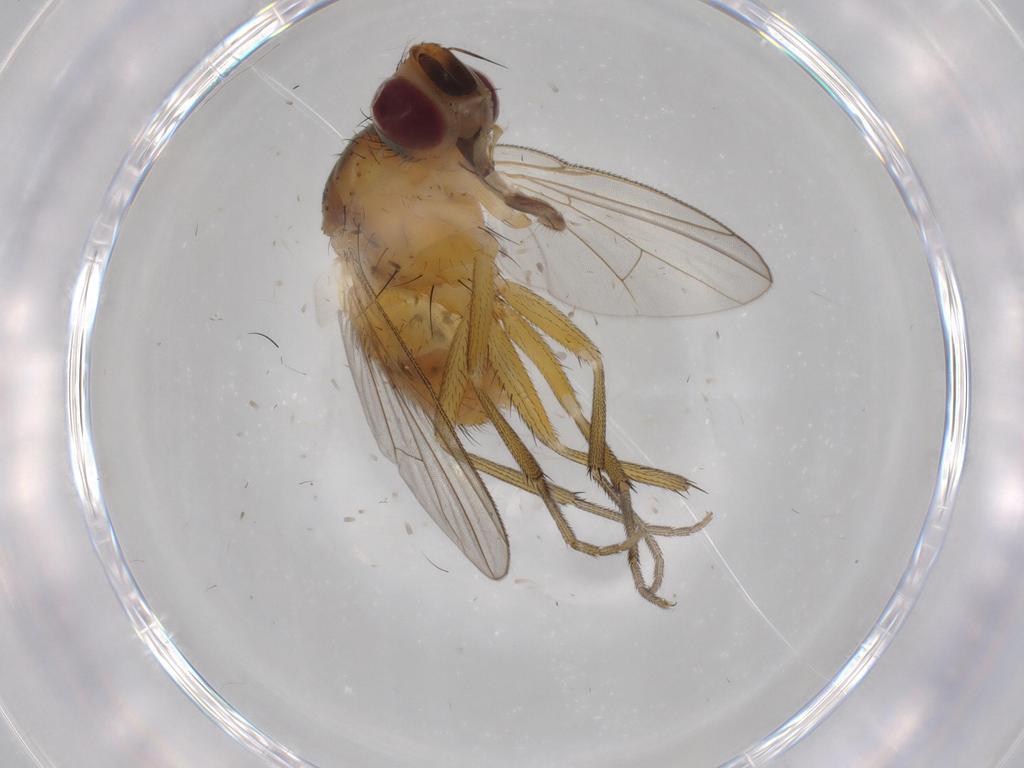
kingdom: Animalia
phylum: Arthropoda
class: Insecta
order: Diptera
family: Muscidae
